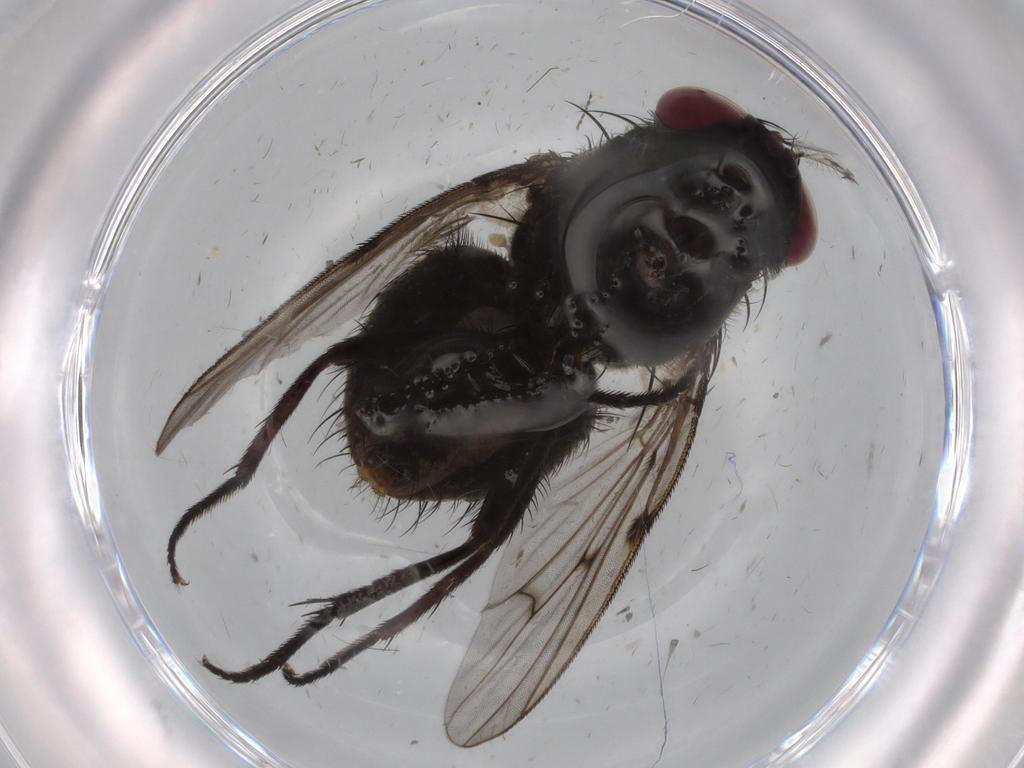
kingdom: Animalia
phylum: Arthropoda
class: Insecta
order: Diptera
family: Muscidae
